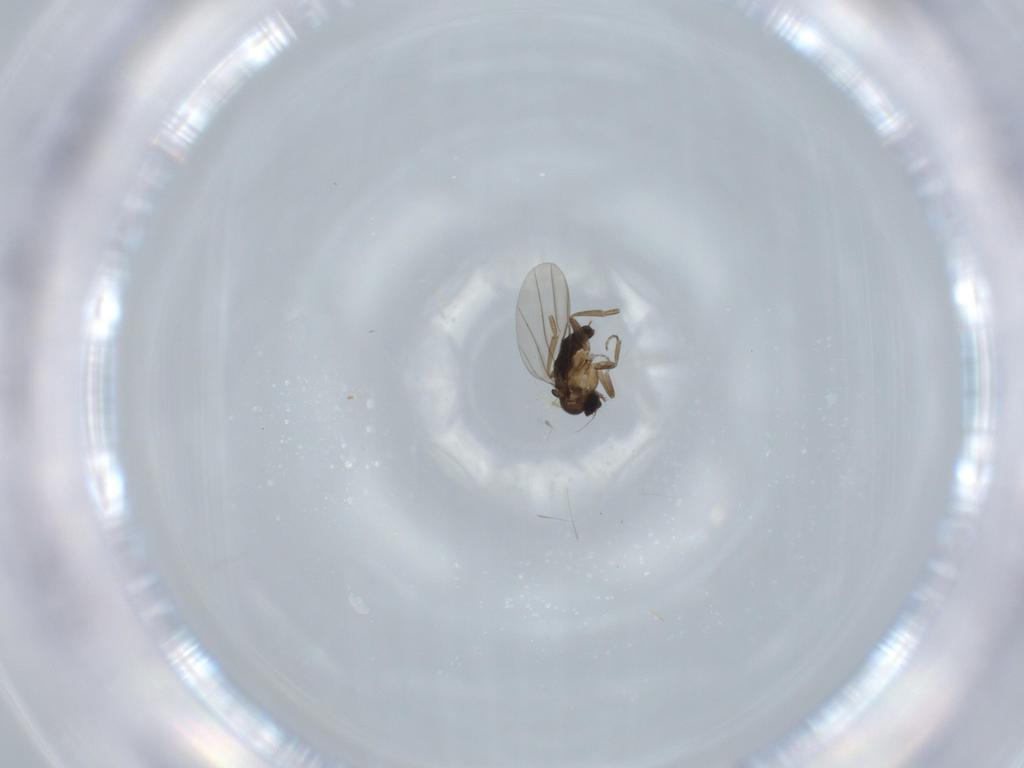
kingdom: Animalia
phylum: Arthropoda
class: Insecta
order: Diptera
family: Phoridae
